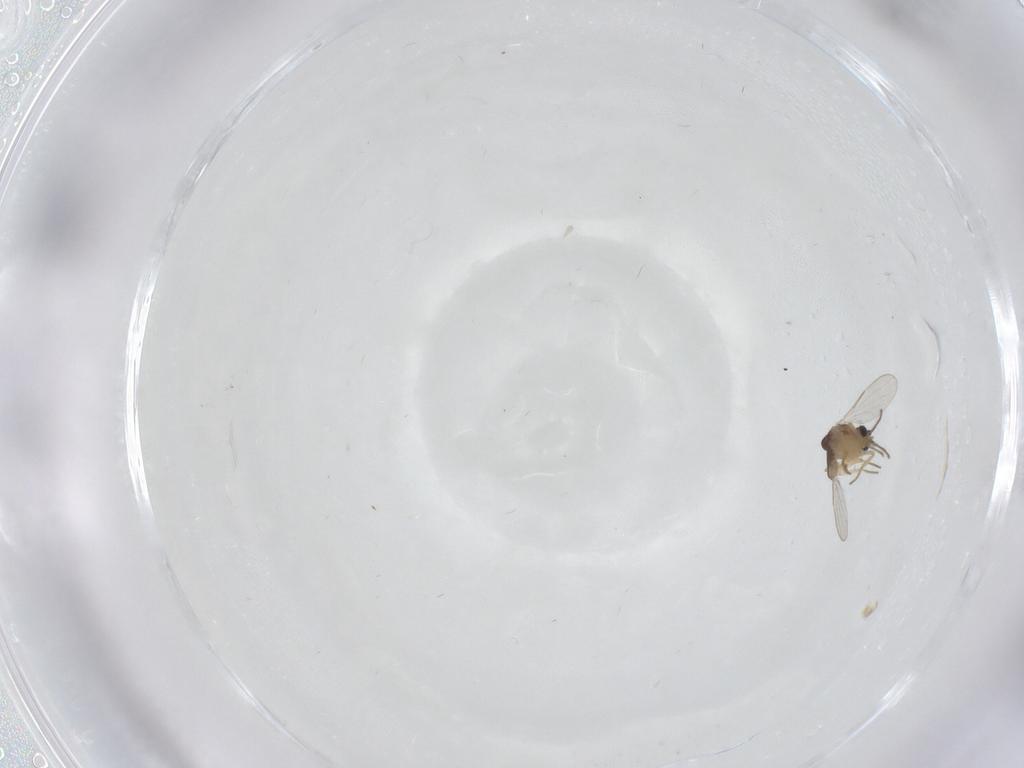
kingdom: Animalia
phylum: Arthropoda
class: Insecta
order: Diptera
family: Ceratopogonidae
